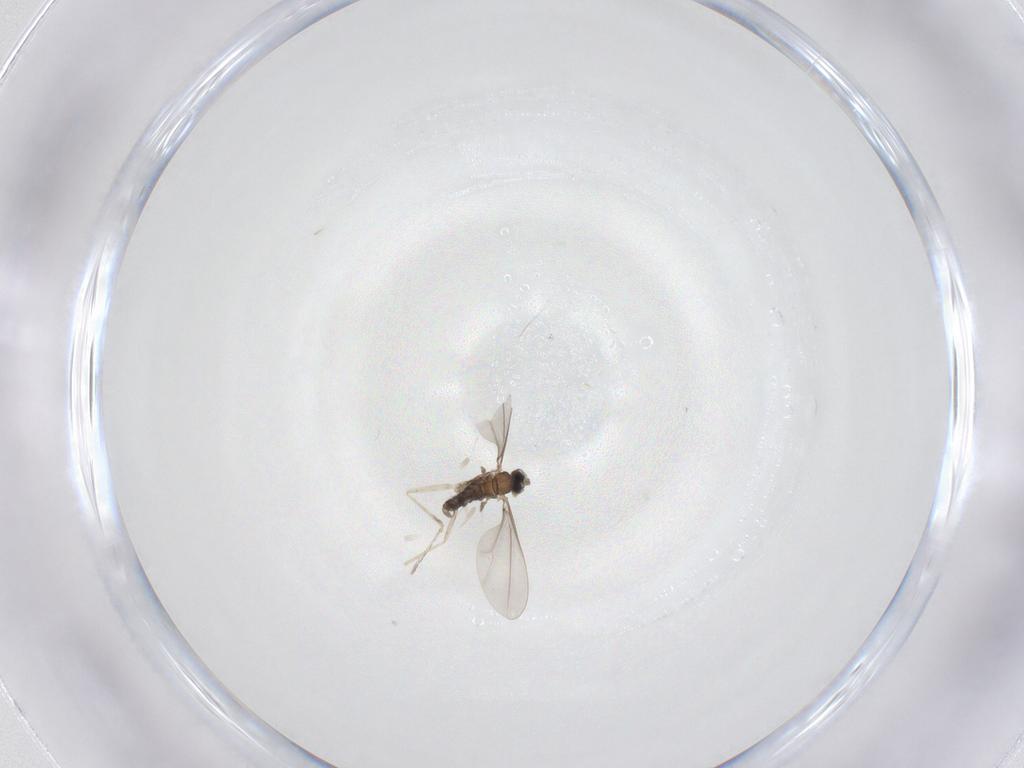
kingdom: Animalia
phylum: Arthropoda
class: Insecta
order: Diptera
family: Cecidomyiidae
